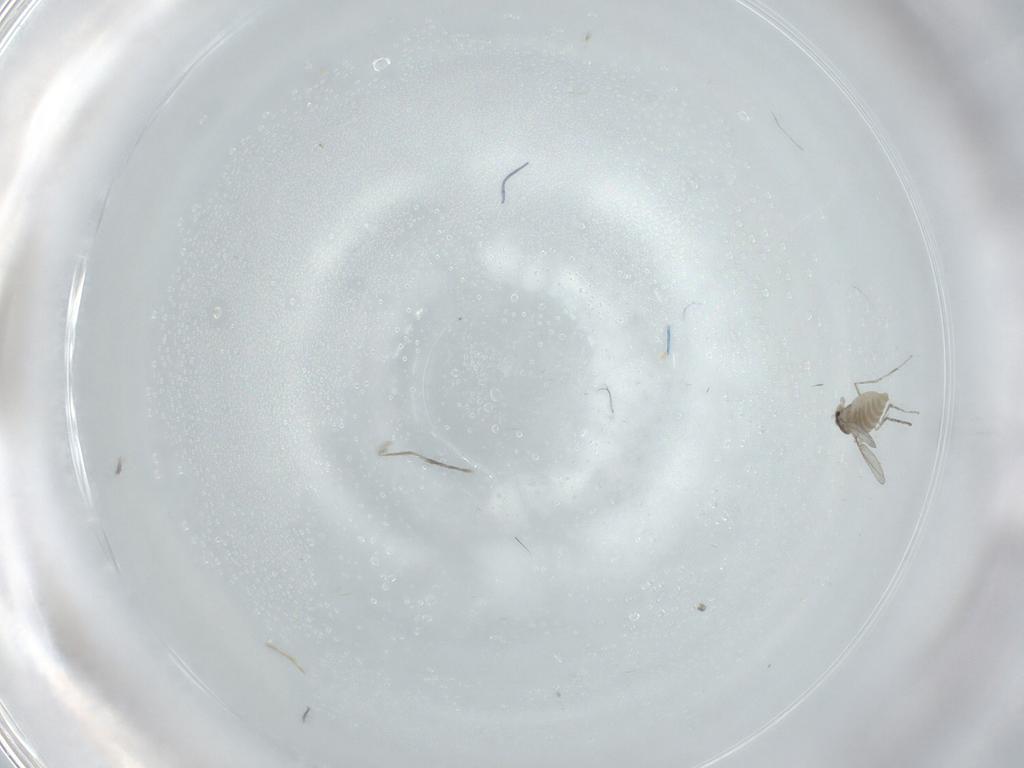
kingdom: Animalia
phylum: Arthropoda
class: Insecta
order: Diptera
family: Cecidomyiidae
